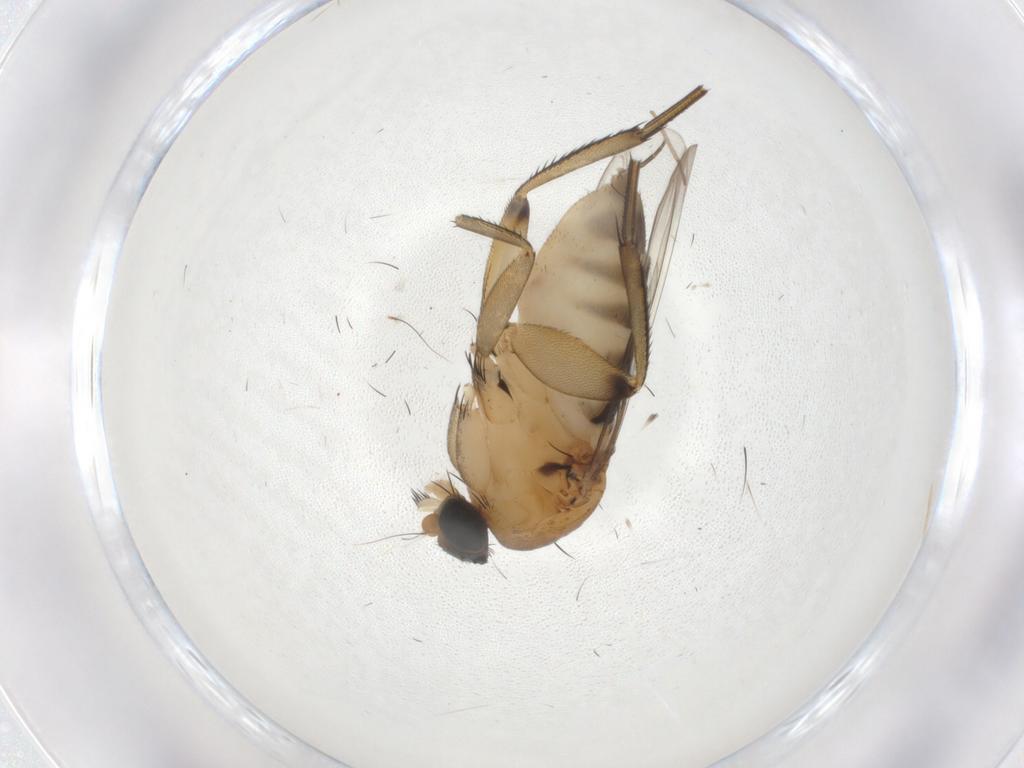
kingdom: Animalia
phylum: Arthropoda
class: Insecta
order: Diptera
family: Phoridae
